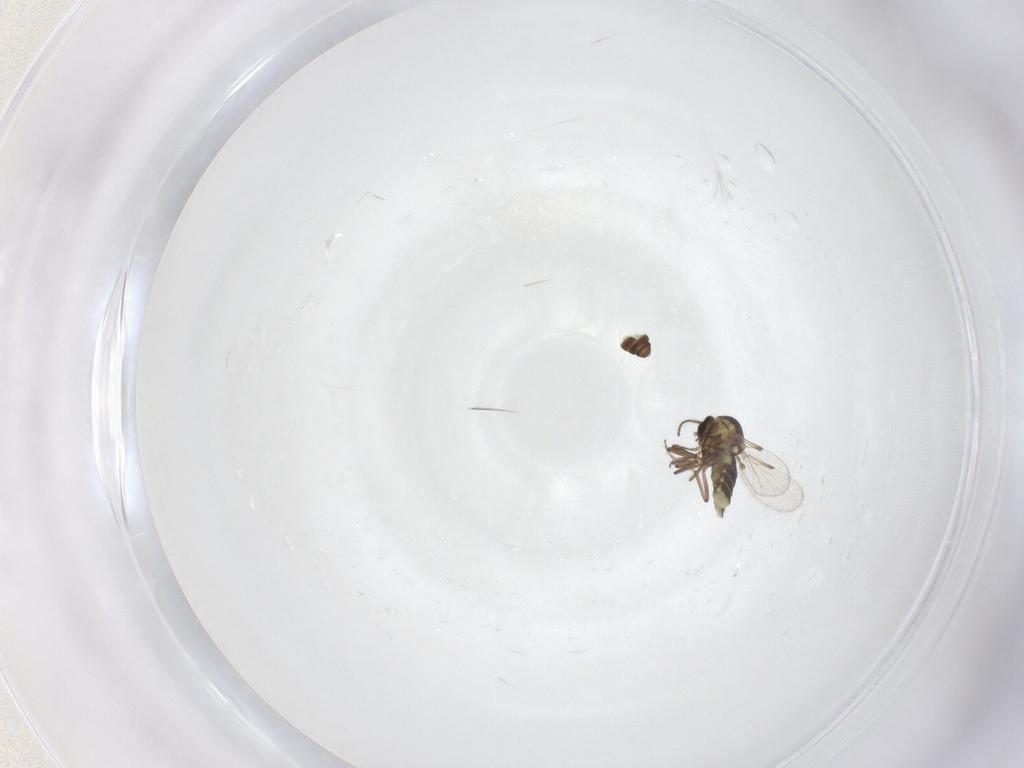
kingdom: Animalia
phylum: Arthropoda
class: Insecta
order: Diptera
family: Ceratopogonidae
